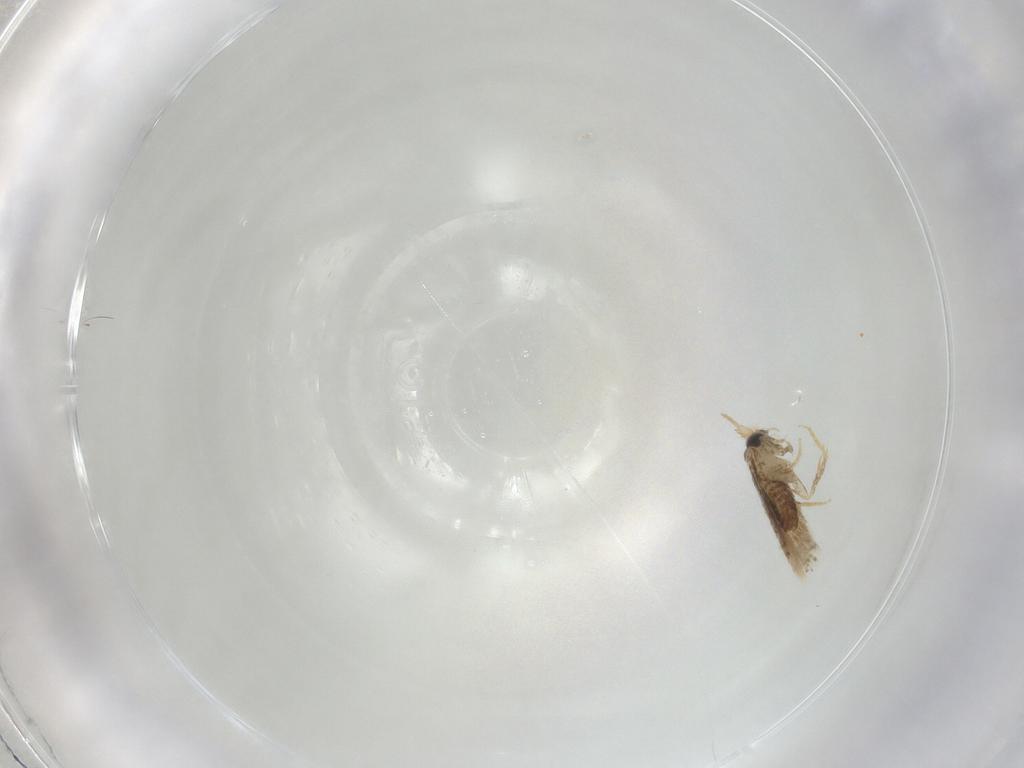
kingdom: Animalia
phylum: Arthropoda
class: Insecta
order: Lepidoptera
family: Nepticulidae
